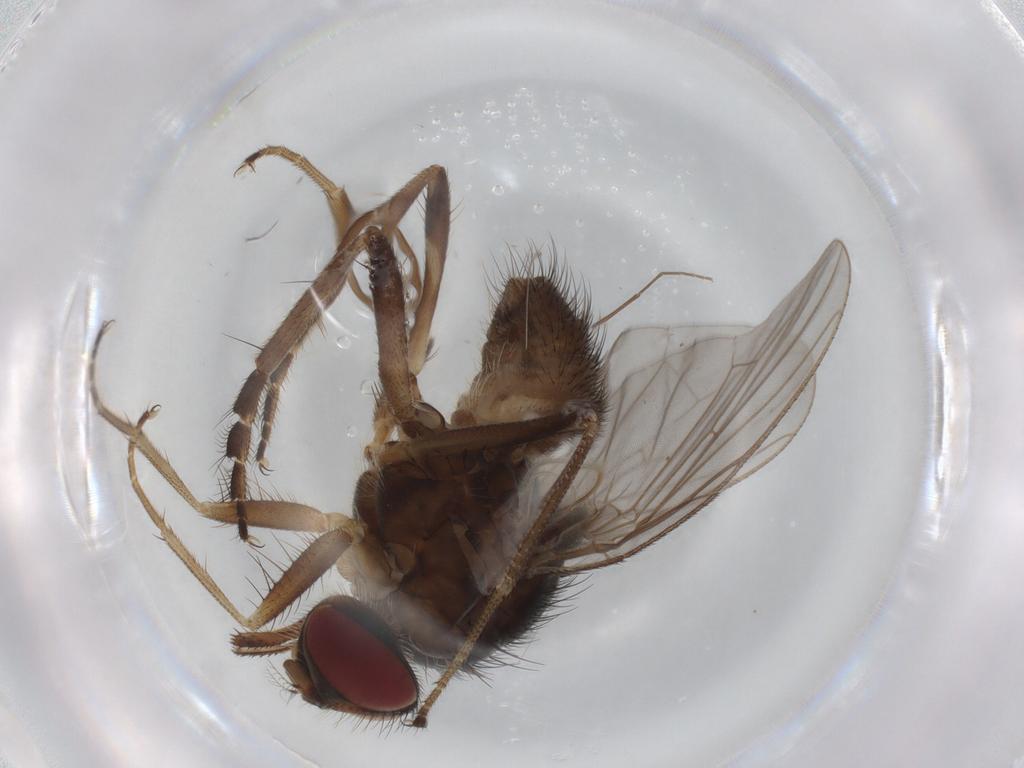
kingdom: Animalia
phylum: Arthropoda
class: Insecta
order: Diptera
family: Chironomidae
